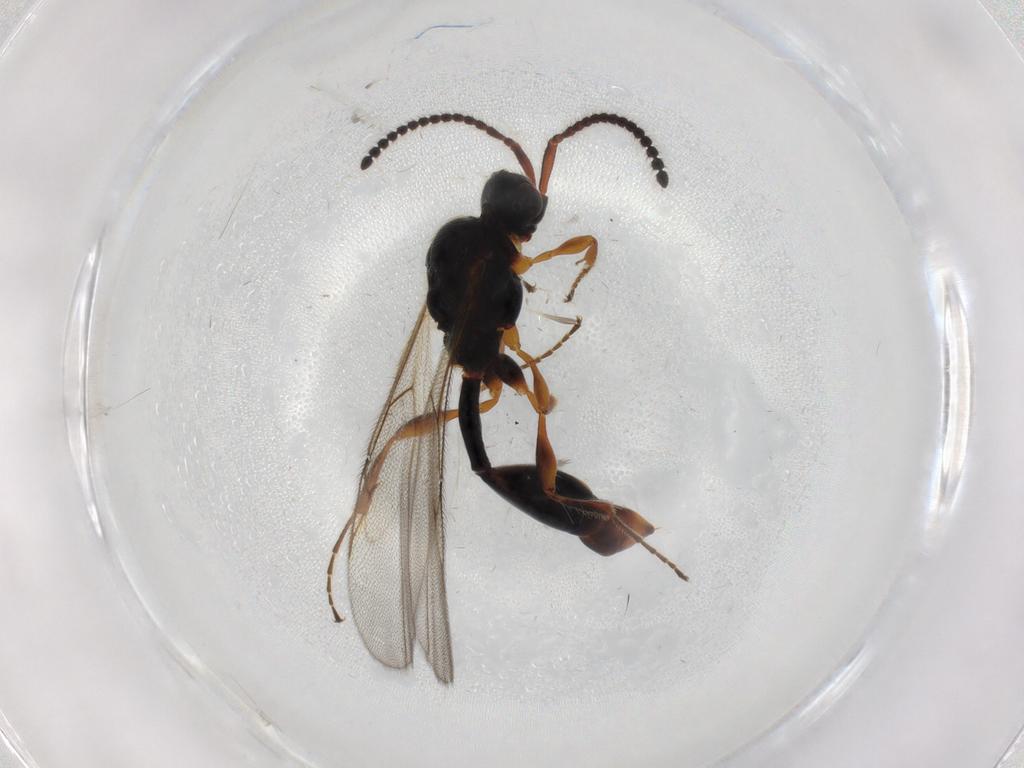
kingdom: Animalia
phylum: Arthropoda
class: Insecta
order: Hymenoptera
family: Diapriidae
